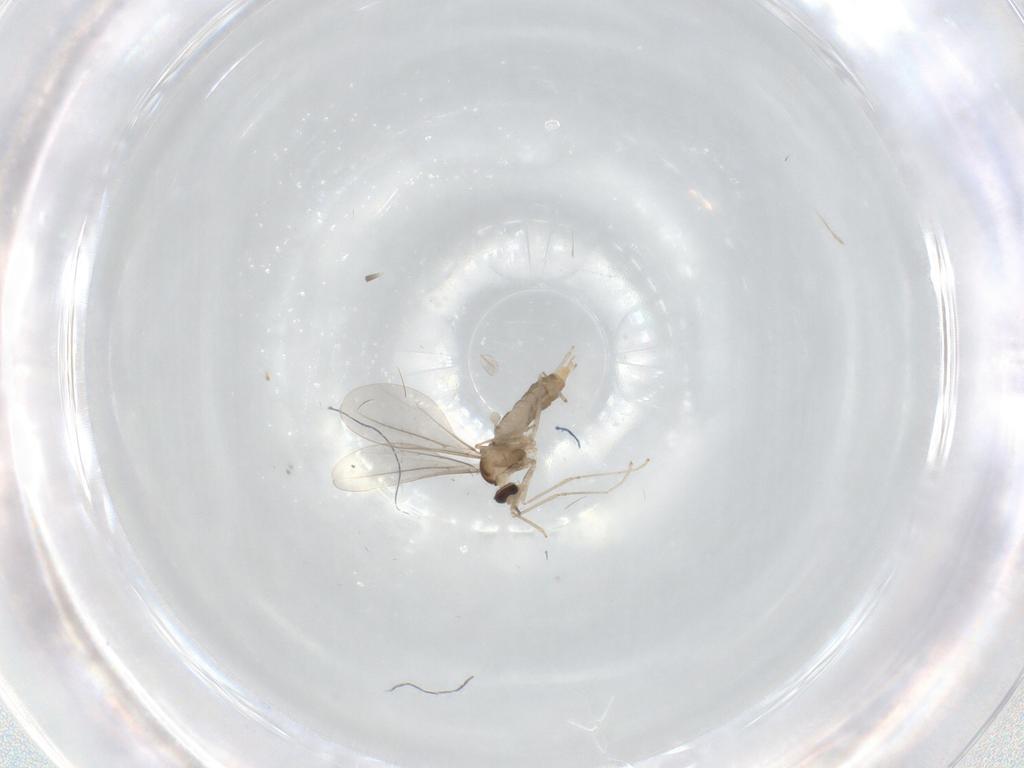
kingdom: Animalia
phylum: Arthropoda
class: Insecta
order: Diptera
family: Cecidomyiidae
